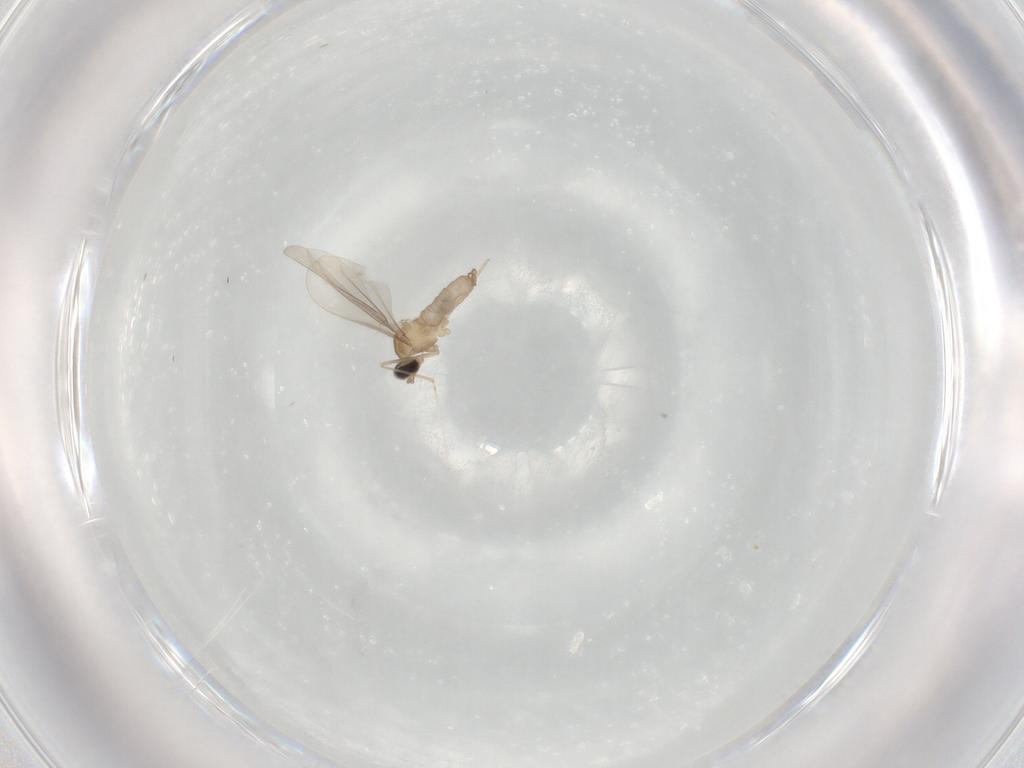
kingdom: Animalia
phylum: Arthropoda
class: Insecta
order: Diptera
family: Cecidomyiidae
